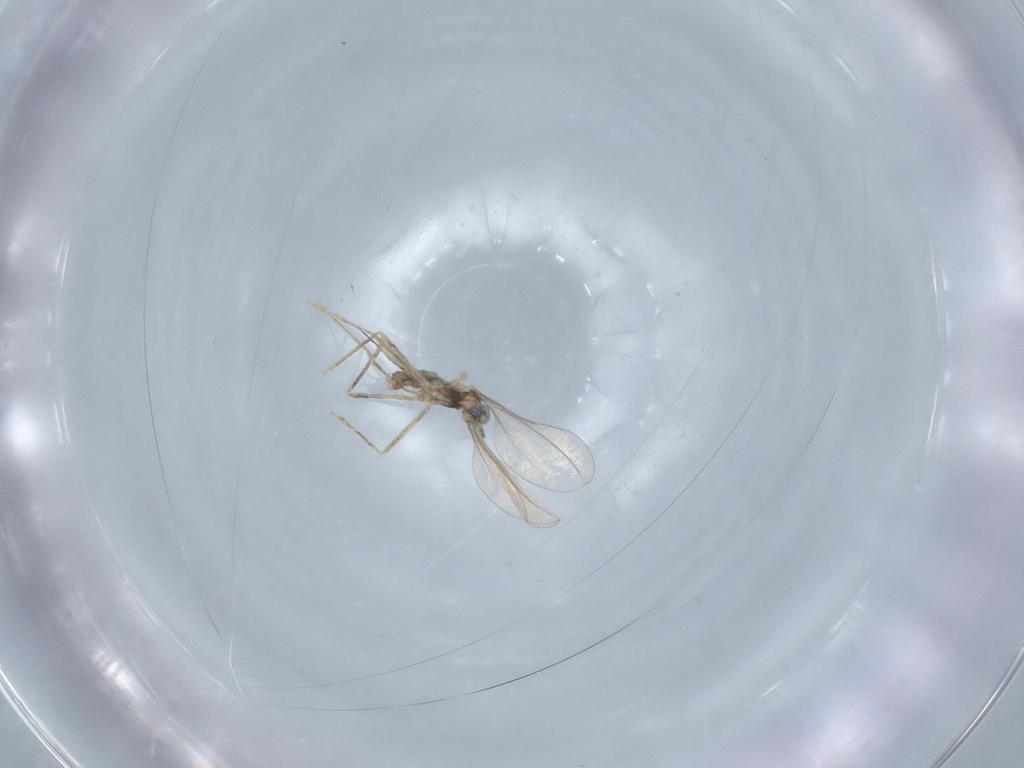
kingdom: Animalia
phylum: Arthropoda
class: Insecta
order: Diptera
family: Cecidomyiidae
